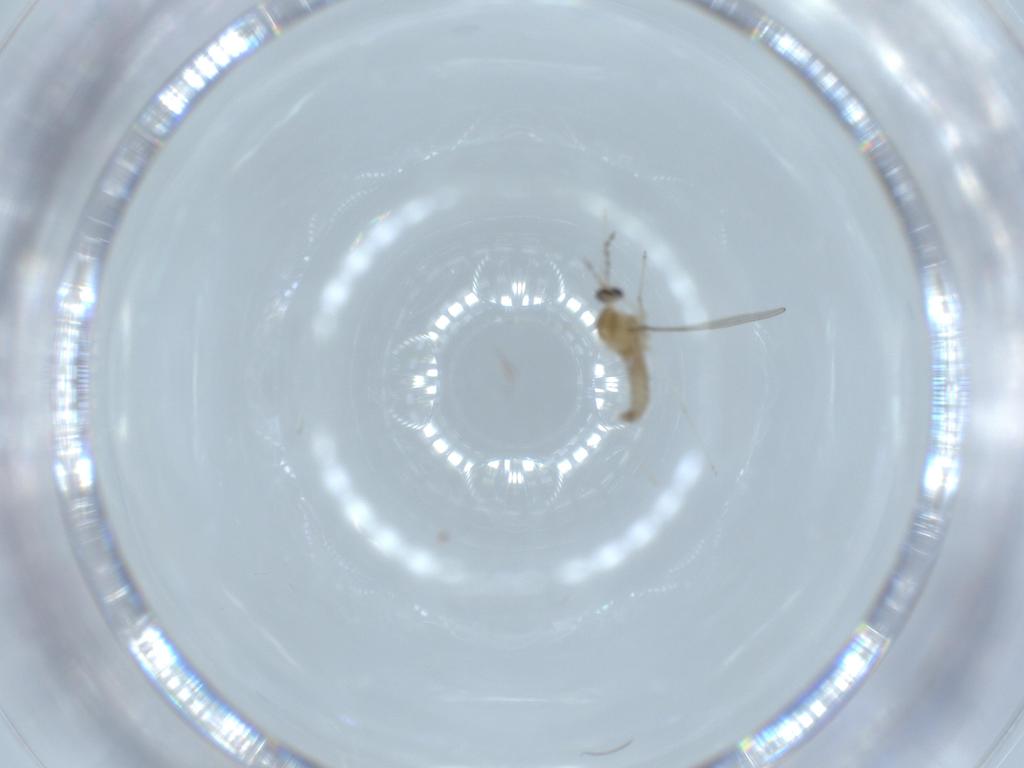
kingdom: Animalia
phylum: Arthropoda
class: Insecta
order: Diptera
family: Cecidomyiidae
